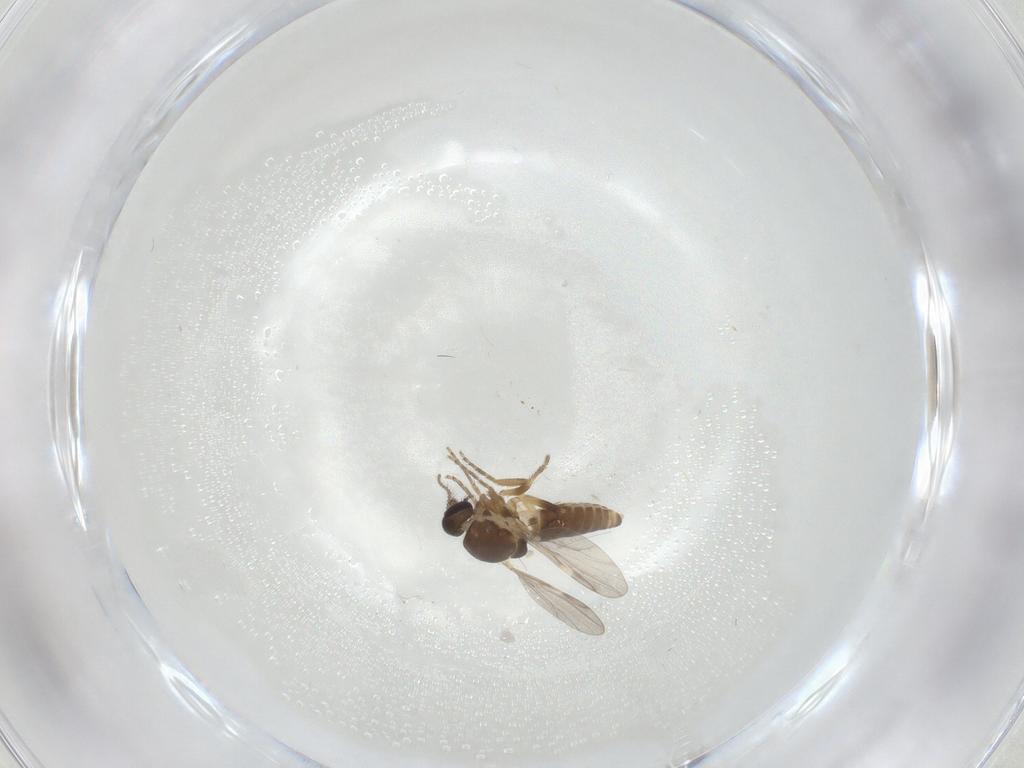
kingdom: Animalia
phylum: Arthropoda
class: Insecta
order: Diptera
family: Ceratopogonidae
